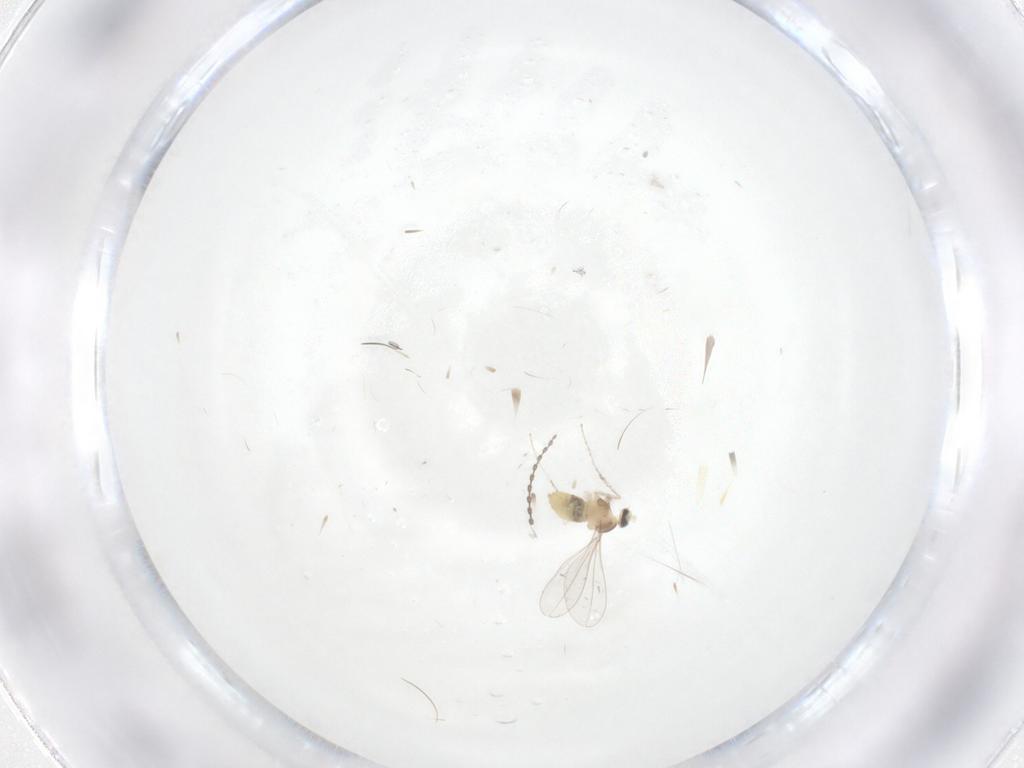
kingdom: Animalia
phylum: Arthropoda
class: Insecta
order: Diptera
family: Cecidomyiidae
